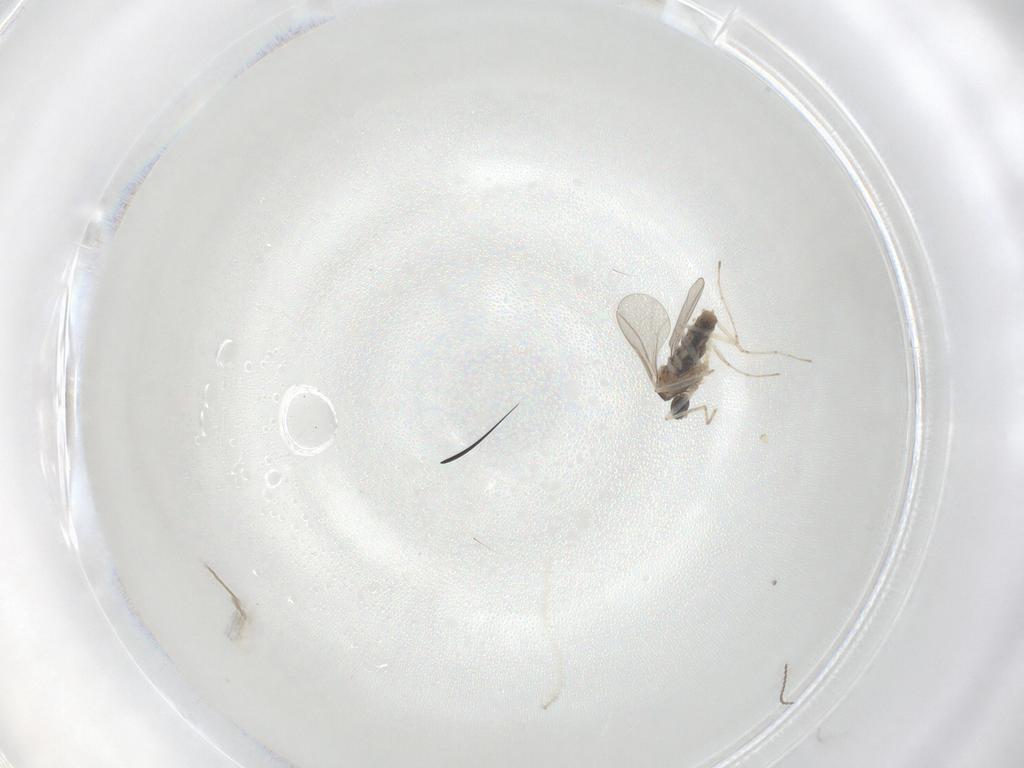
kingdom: Animalia
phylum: Arthropoda
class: Insecta
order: Diptera
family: Cecidomyiidae
